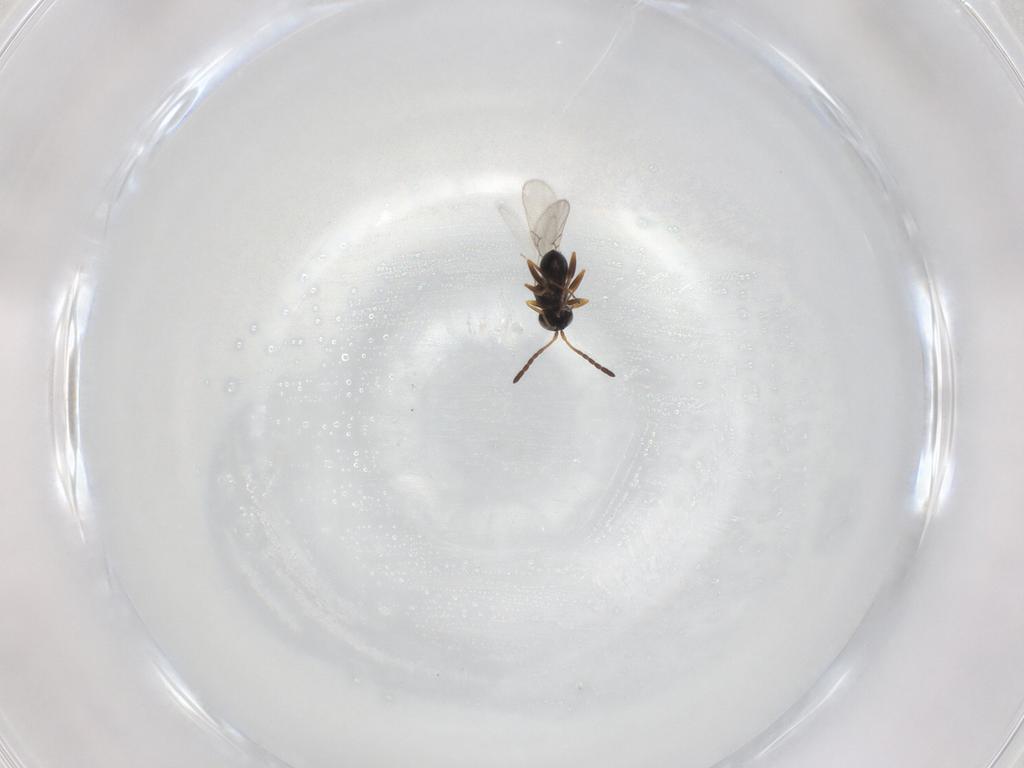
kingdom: Animalia
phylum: Arthropoda
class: Insecta
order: Hymenoptera
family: Figitidae
